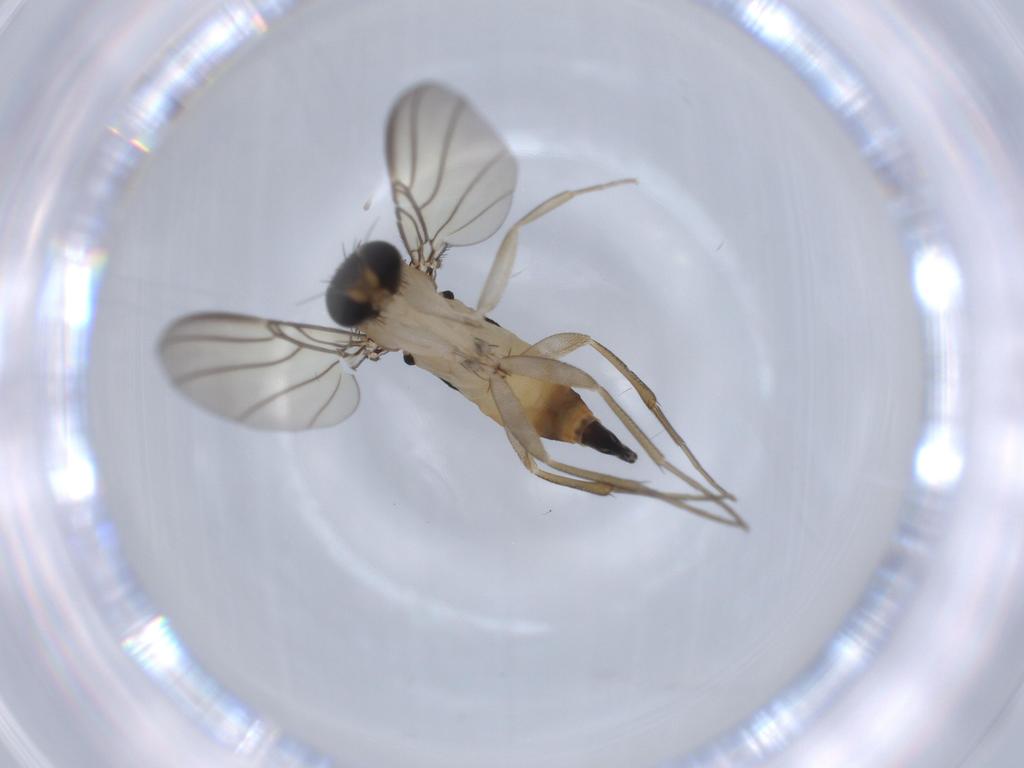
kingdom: Animalia
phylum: Arthropoda
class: Insecta
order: Diptera
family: Phoridae
